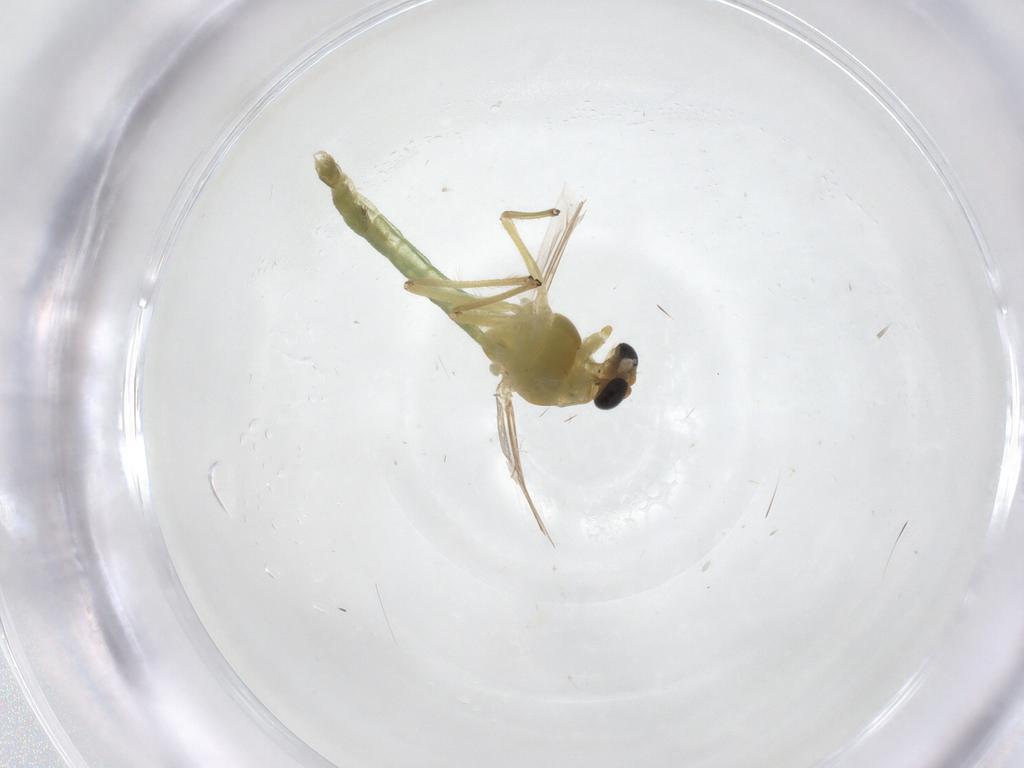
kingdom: Animalia
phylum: Arthropoda
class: Insecta
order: Diptera
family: Chironomidae
